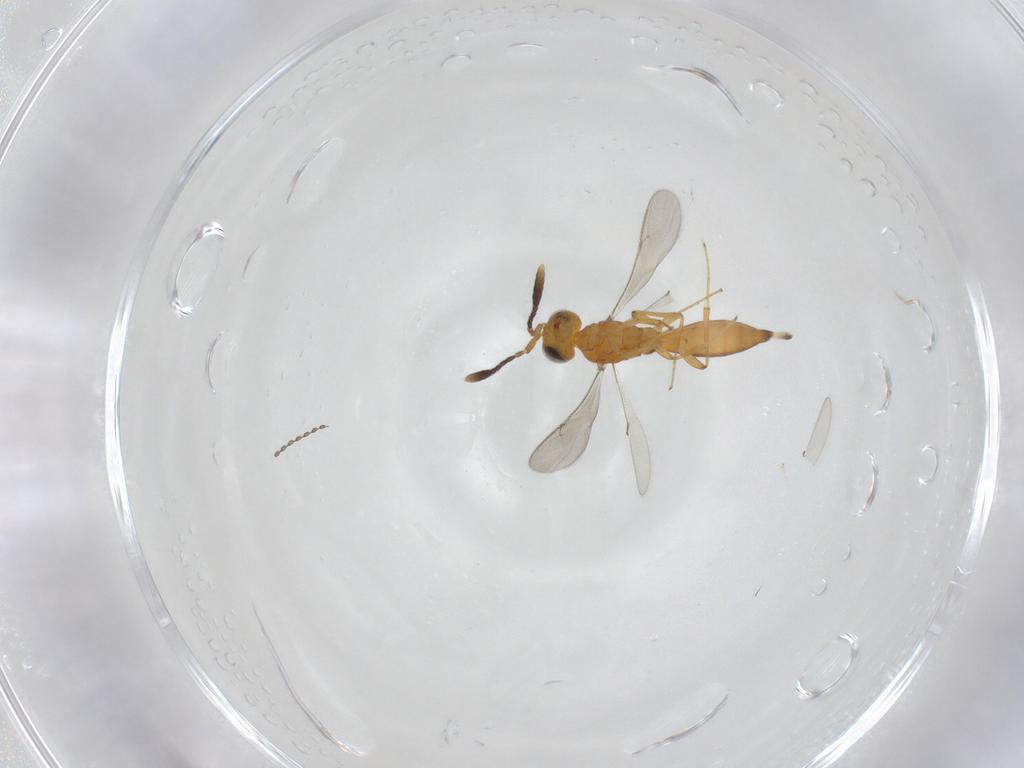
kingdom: Animalia
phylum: Arthropoda
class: Insecta
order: Hymenoptera
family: Scelionidae
